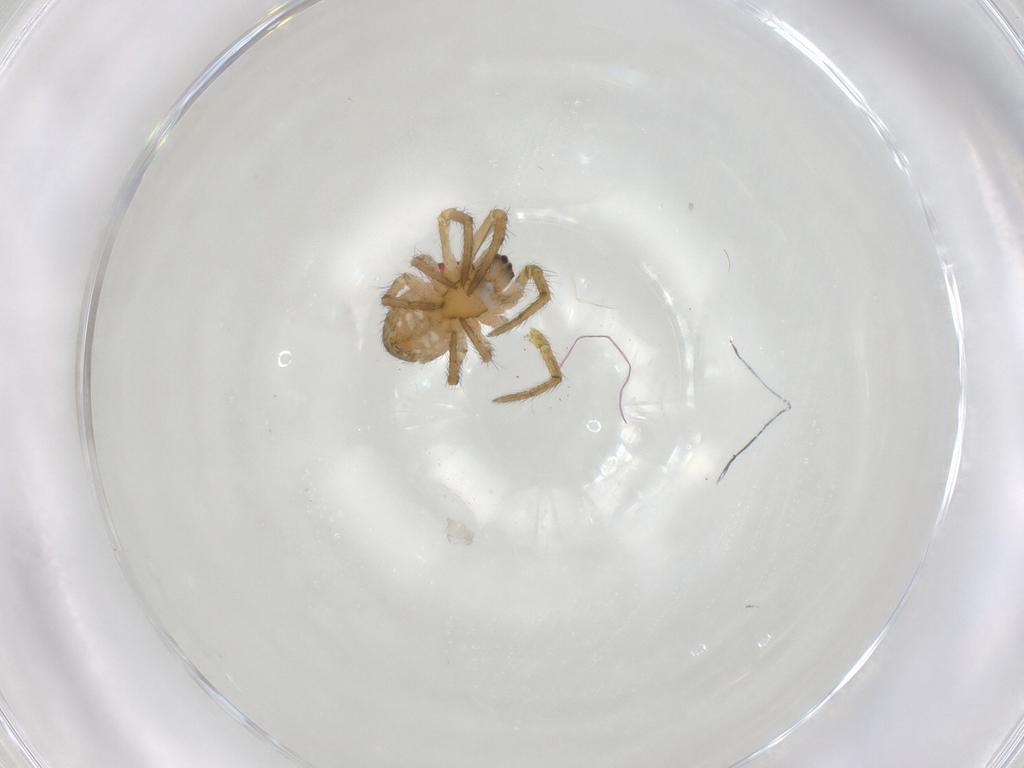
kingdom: Animalia
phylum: Arthropoda
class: Arachnida
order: Araneae
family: Araneidae
